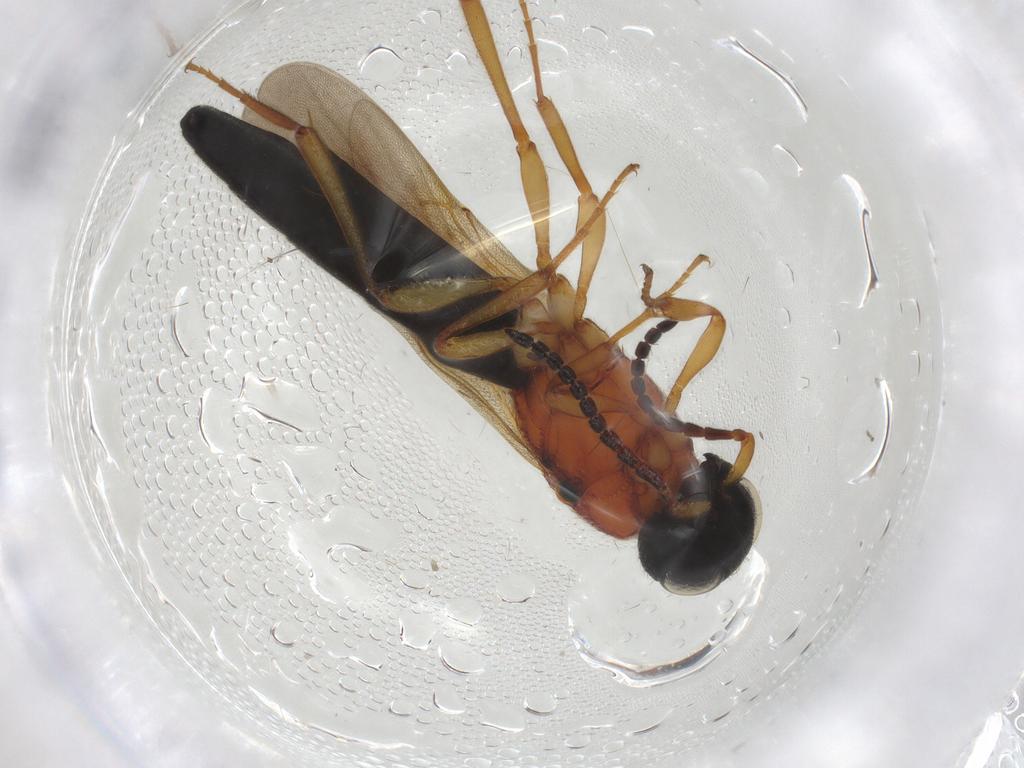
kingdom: Animalia
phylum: Arthropoda
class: Insecta
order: Hymenoptera
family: Scelionidae
